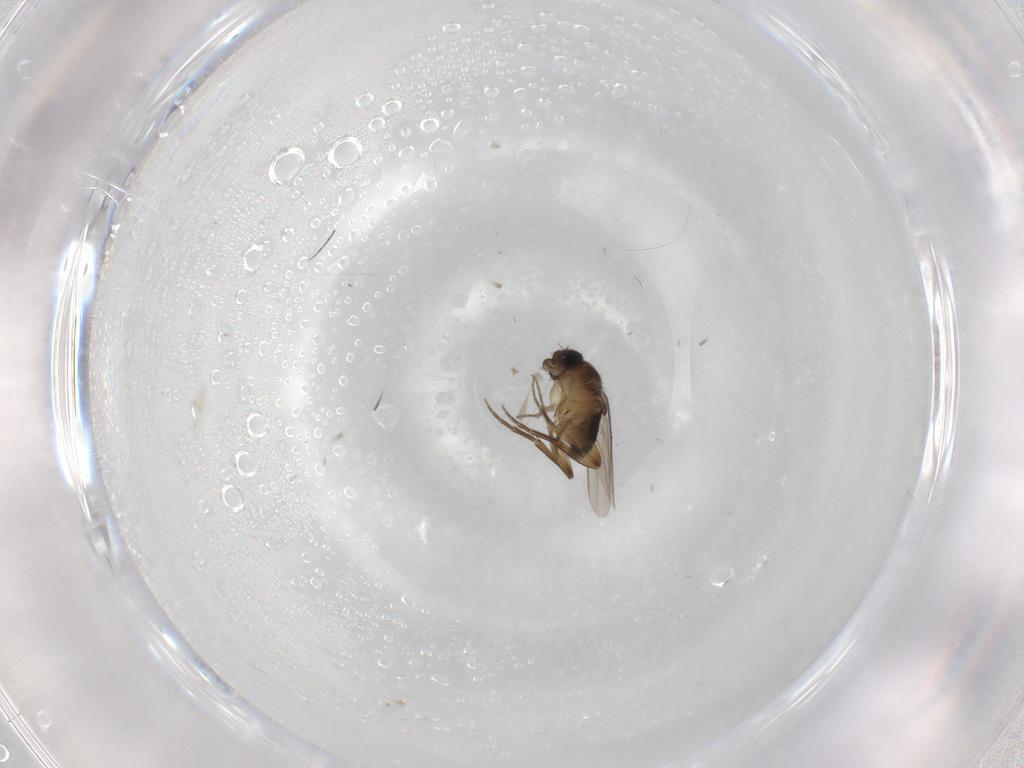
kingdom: Animalia
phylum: Arthropoda
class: Insecta
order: Diptera
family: Phoridae
